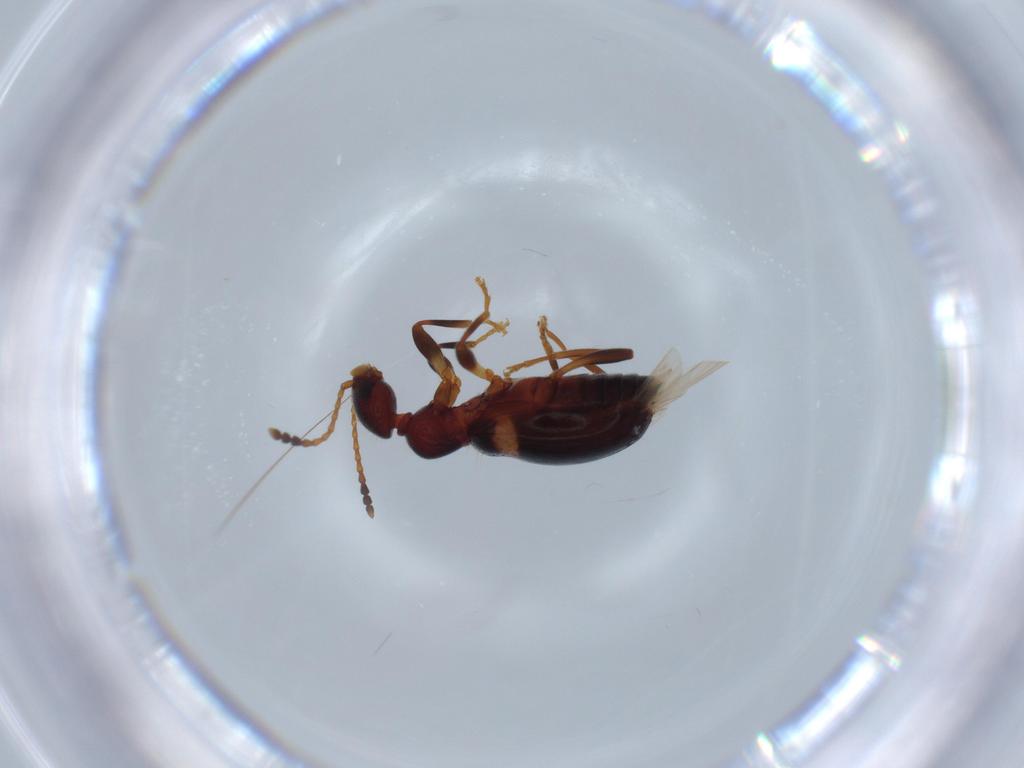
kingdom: Animalia
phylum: Arthropoda
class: Insecta
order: Coleoptera
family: Anthicidae
